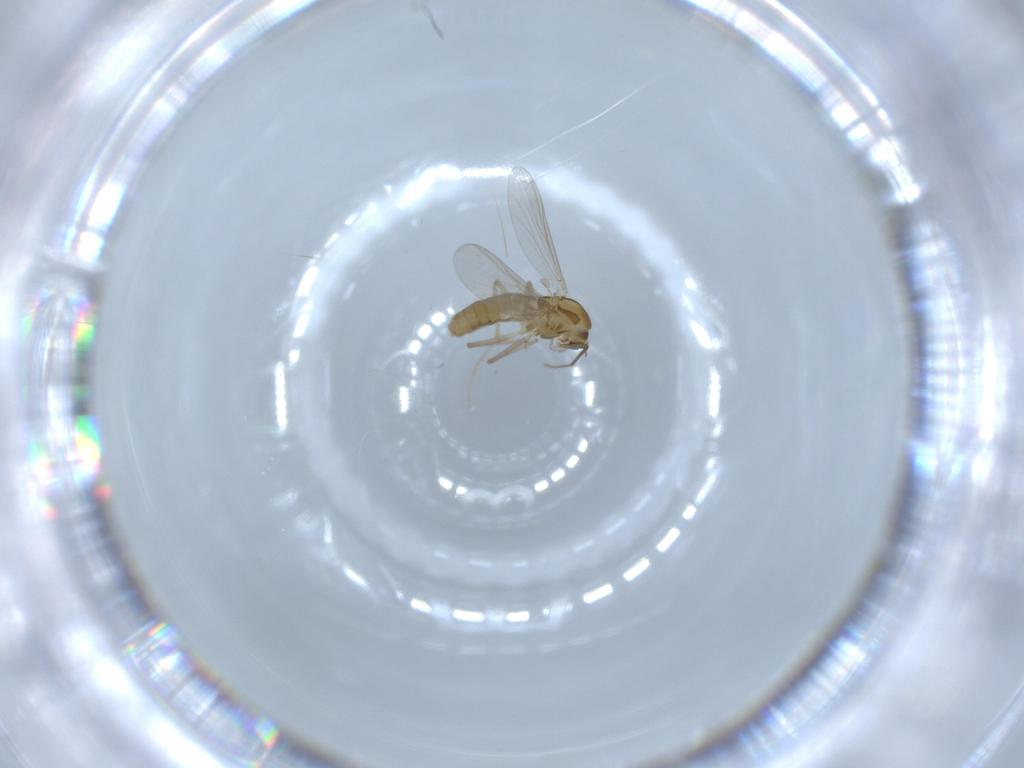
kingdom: Animalia
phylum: Arthropoda
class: Insecta
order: Diptera
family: Chironomidae
